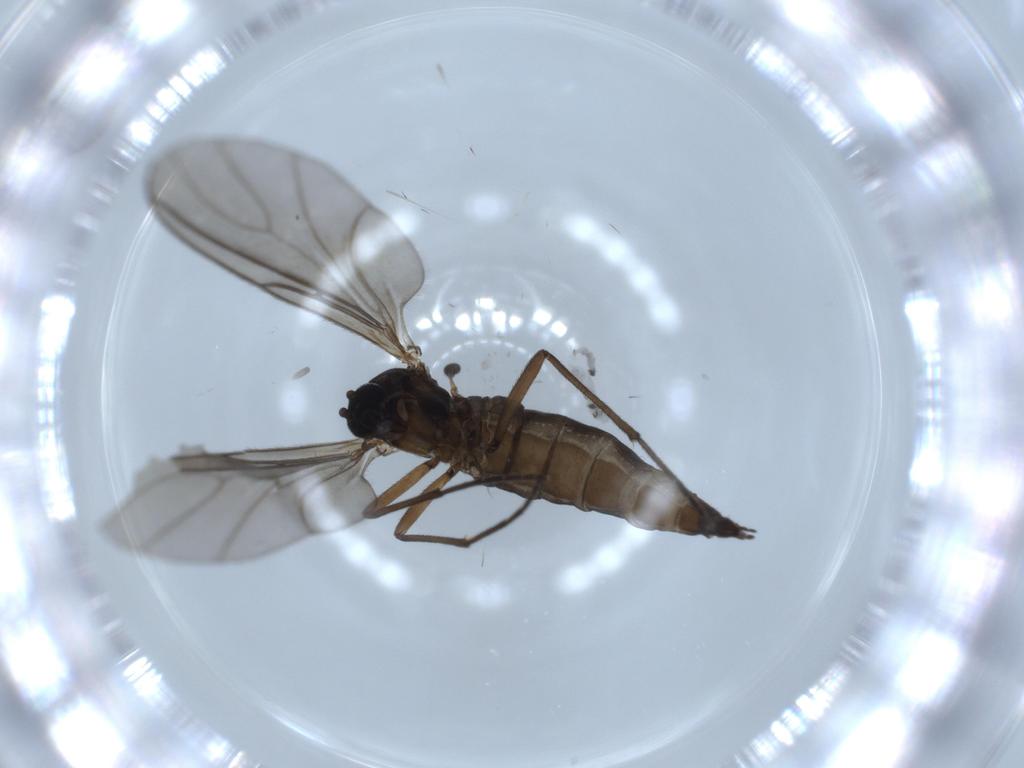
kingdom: Animalia
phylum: Arthropoda
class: Insecta
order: Diptera
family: Sciaridae
